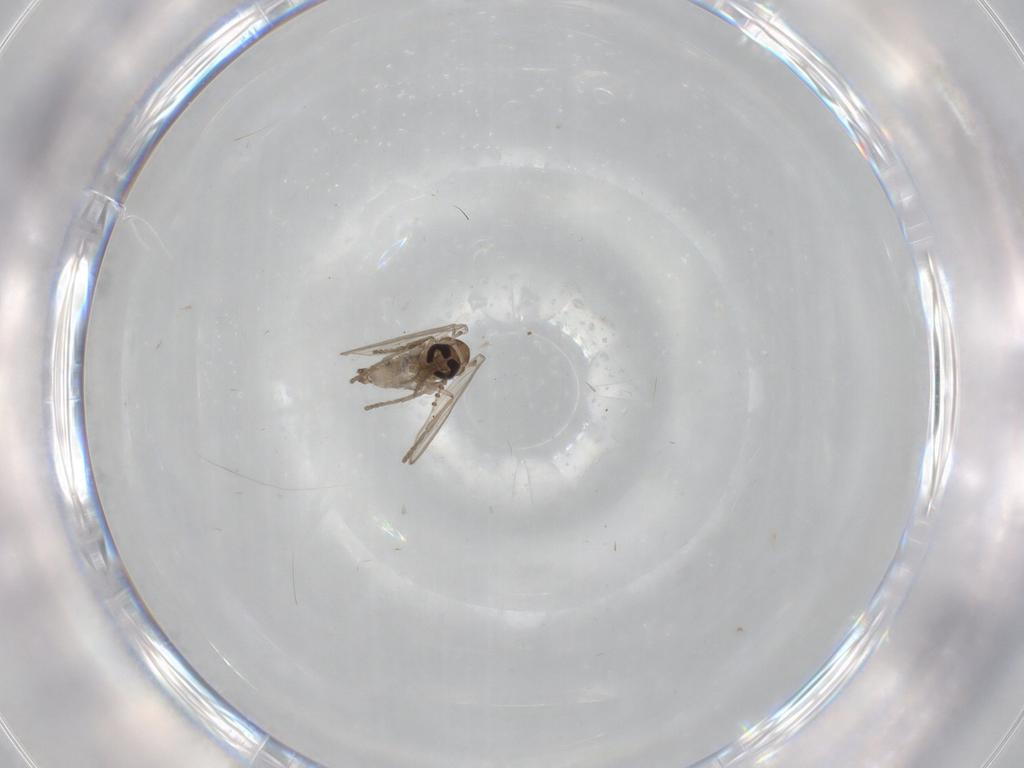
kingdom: Animalia
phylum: Arthropoda
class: Insecta
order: Diptera
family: Psychodidae
